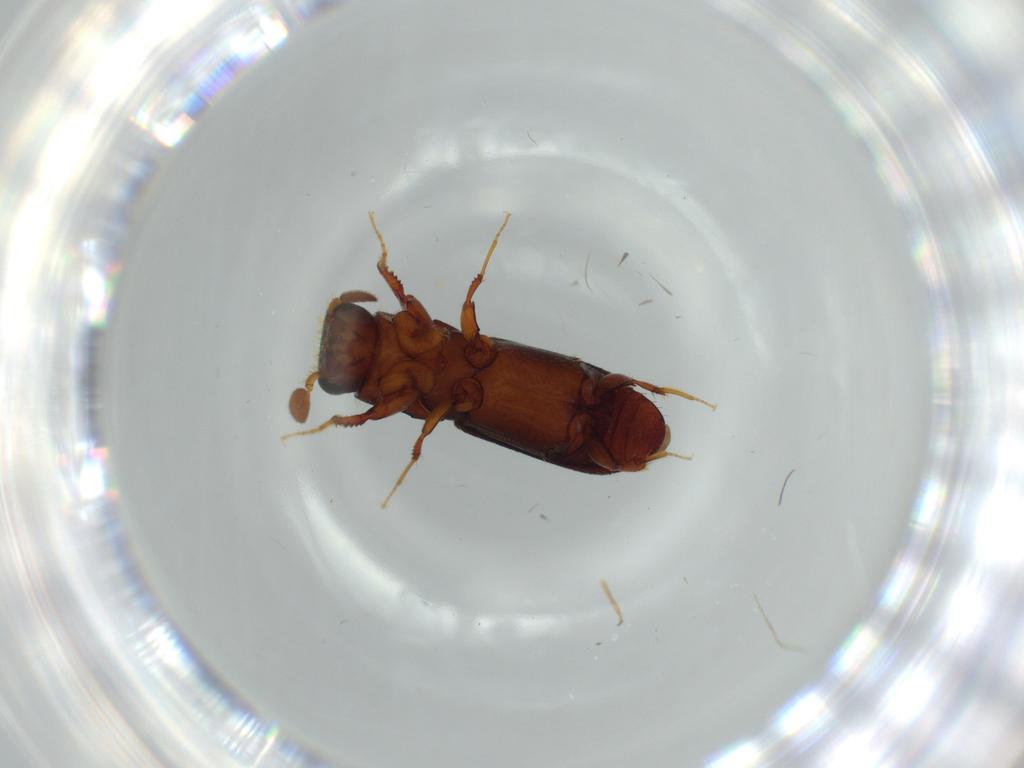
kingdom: Animalia
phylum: Arthropoda
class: Insecta
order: Coleoptera
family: Curculionidae
